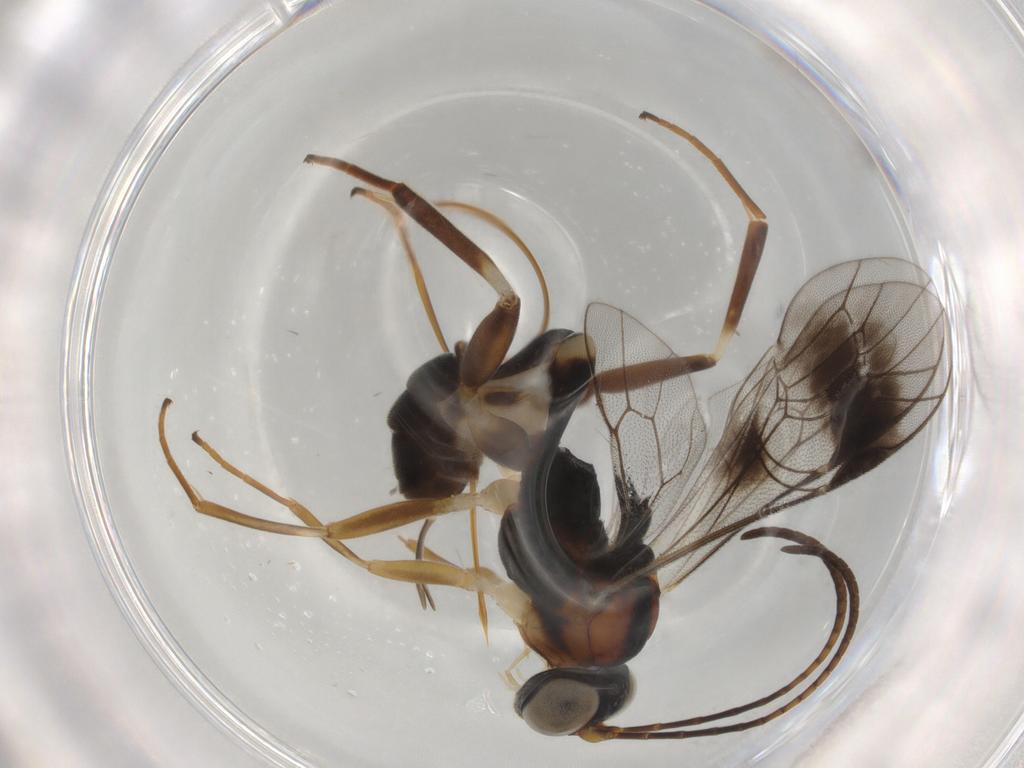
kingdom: Animalia
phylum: Arthropoda
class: Insecta
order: Hymenoptera
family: Ichneumonidae
